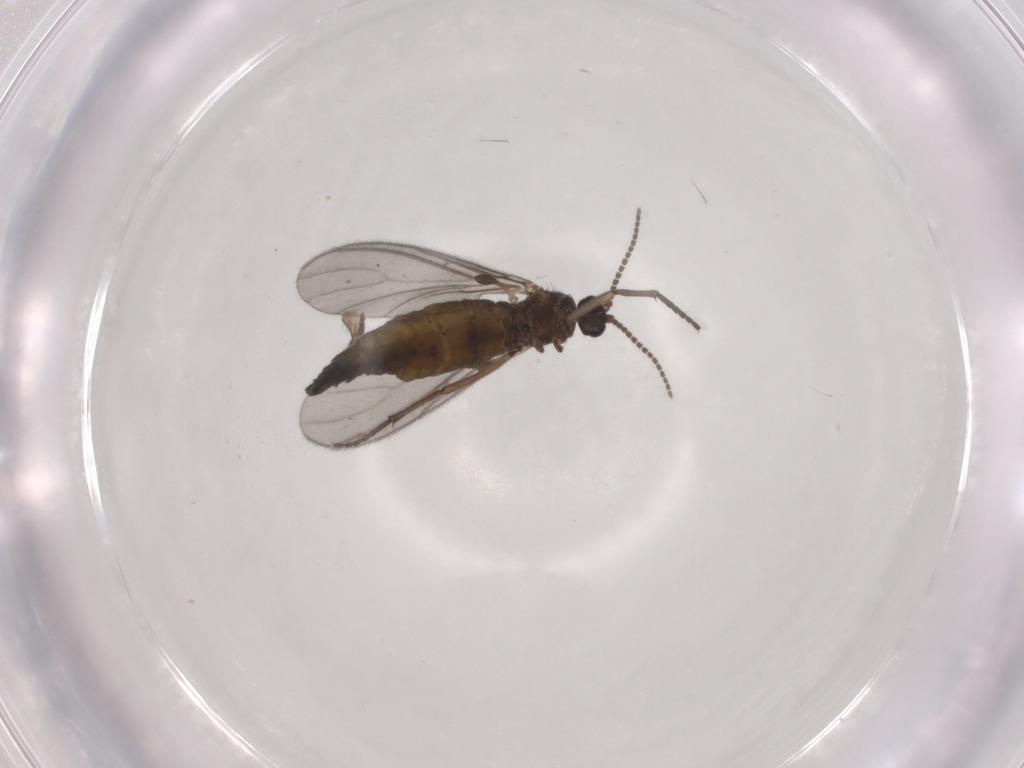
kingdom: Animalia
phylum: Arthropoda
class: Insecta
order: Diptera
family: Sciaridae
